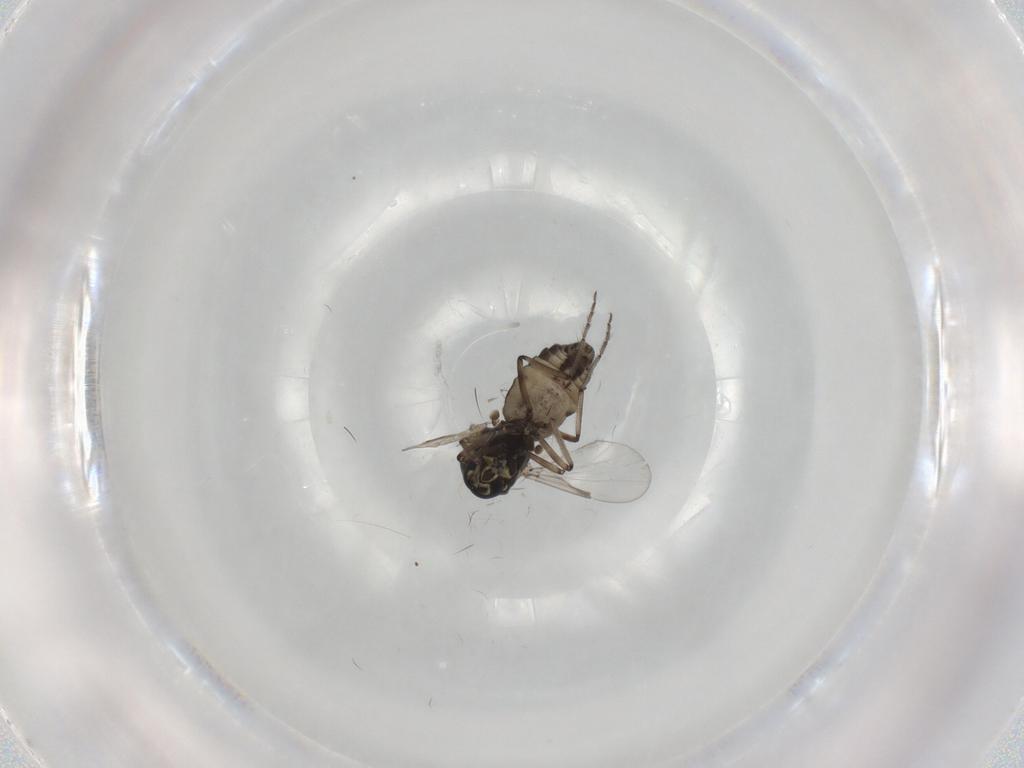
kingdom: Animalia
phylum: Arthropoda
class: Insecta
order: Diptera
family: Ceratopogonidae
